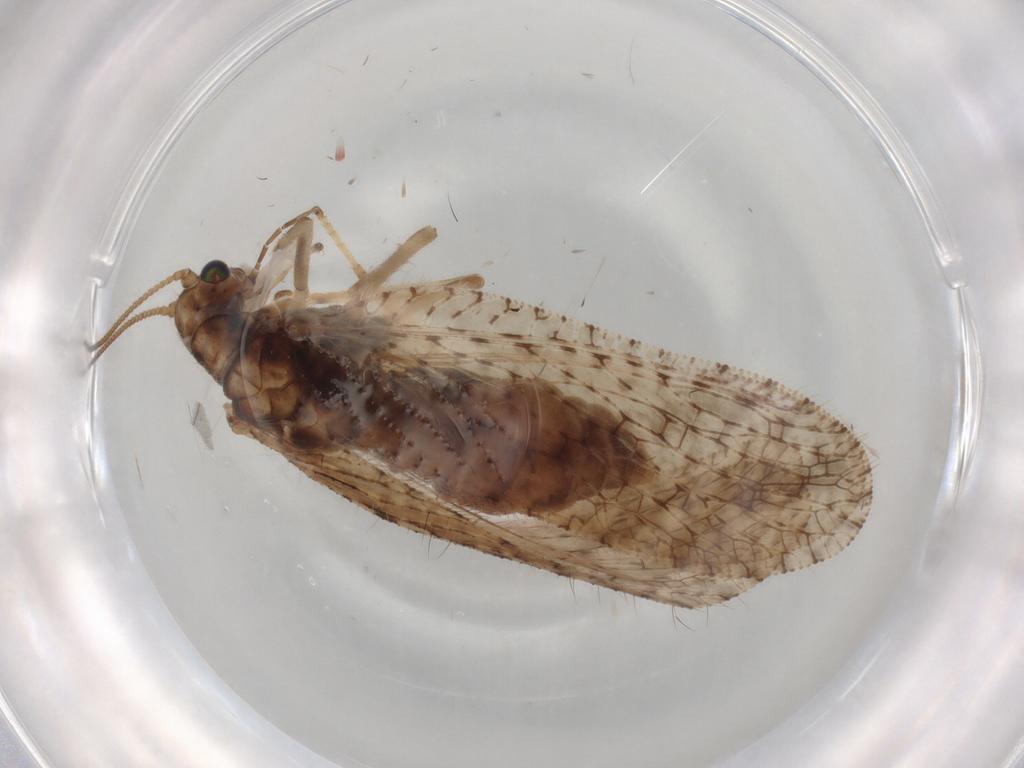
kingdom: Animalia
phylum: Arthropoda
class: Insecta
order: Neuroptera
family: Hemerobiidae
